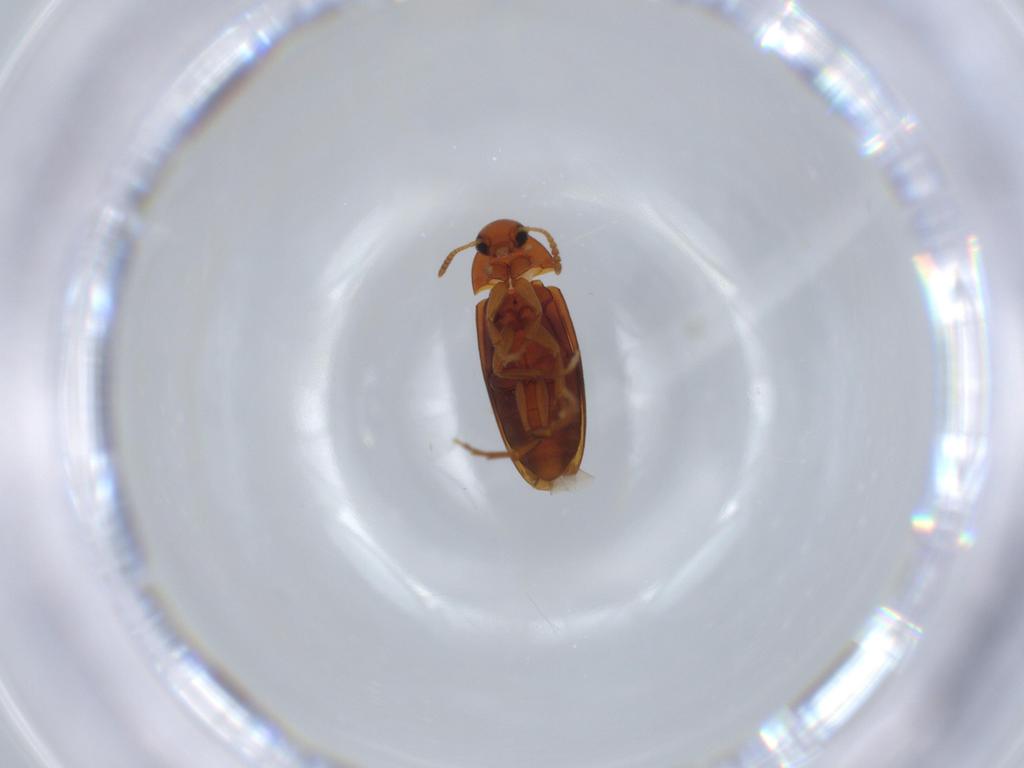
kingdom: Animalia
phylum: Arthropoda
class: Insecta
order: Coleoptera
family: Scraptiidae
